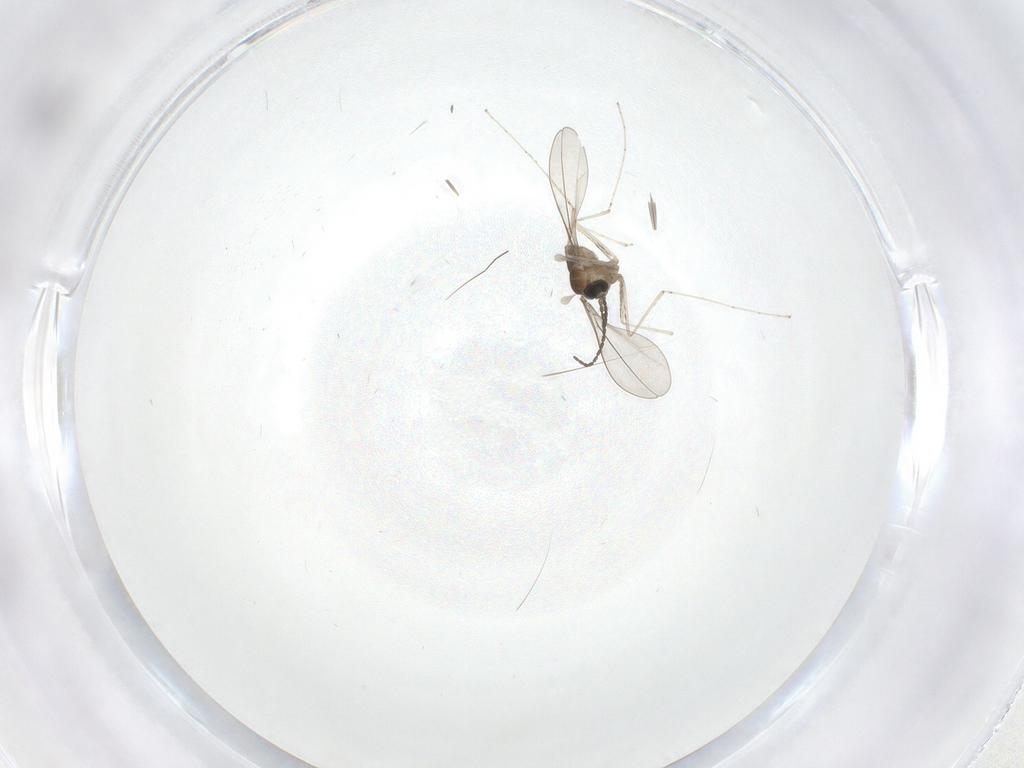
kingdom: Animalia
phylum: Arthropoda
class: Insecta
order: Diptera
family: Cecidomyiidae
